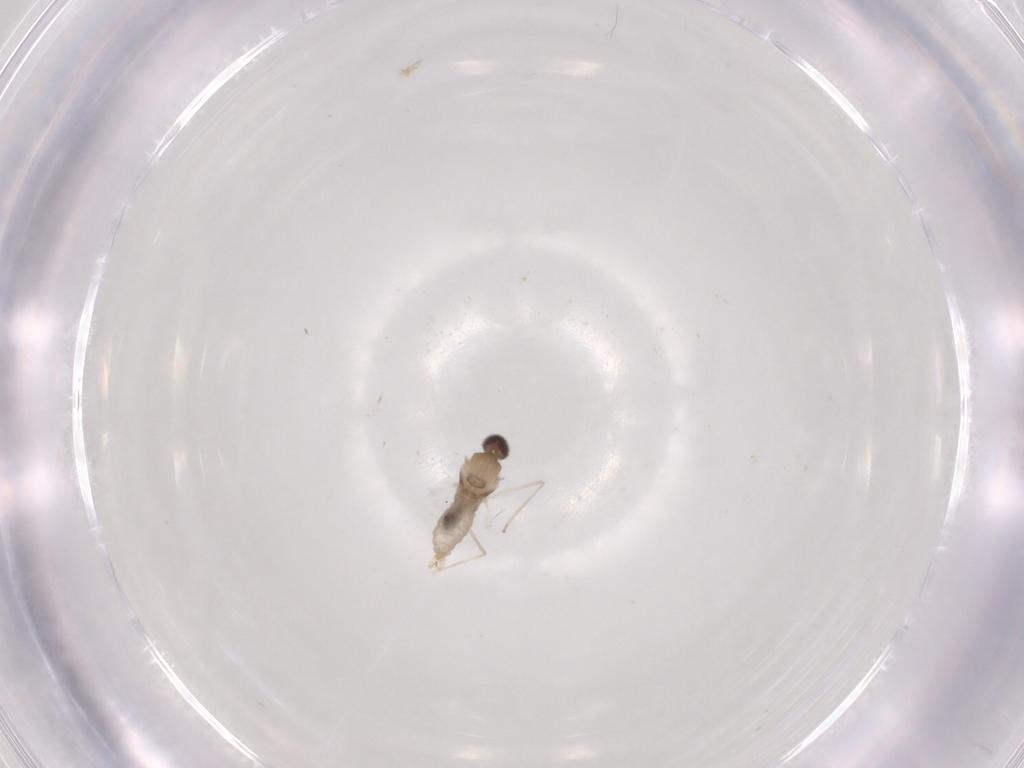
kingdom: Animalia
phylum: Arthropoda
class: Insecta
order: Diptera
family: Cecidomyiidae
